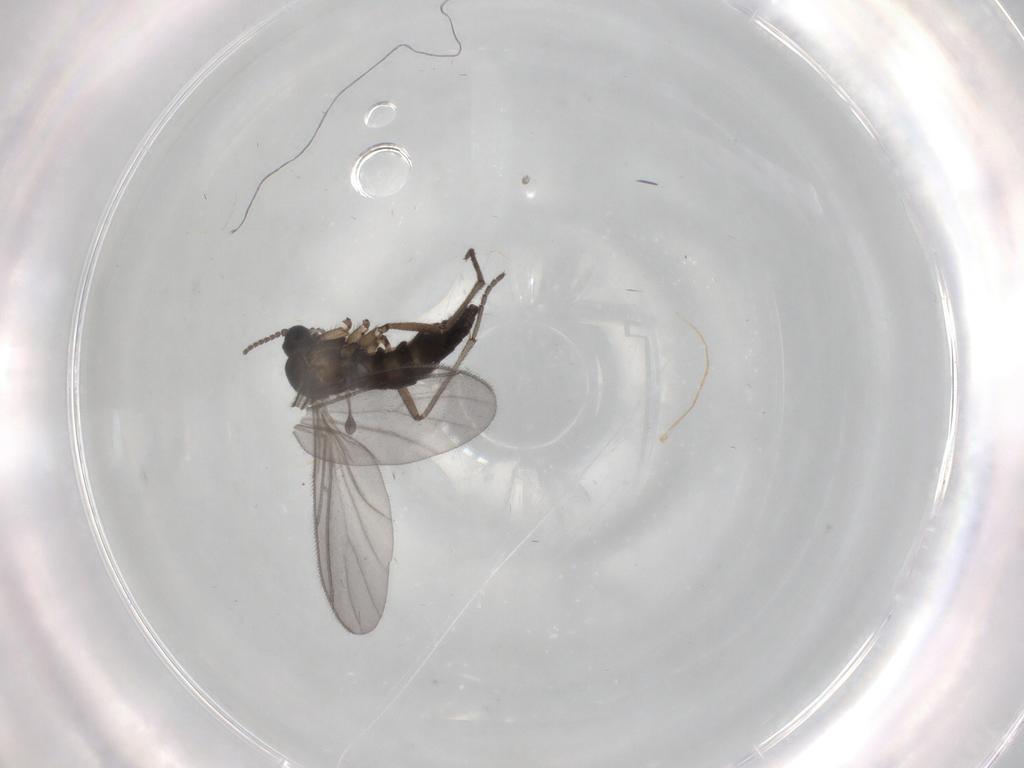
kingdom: Animalia
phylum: Arthropoda
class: Insecta
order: Diptera
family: Sciaridae
